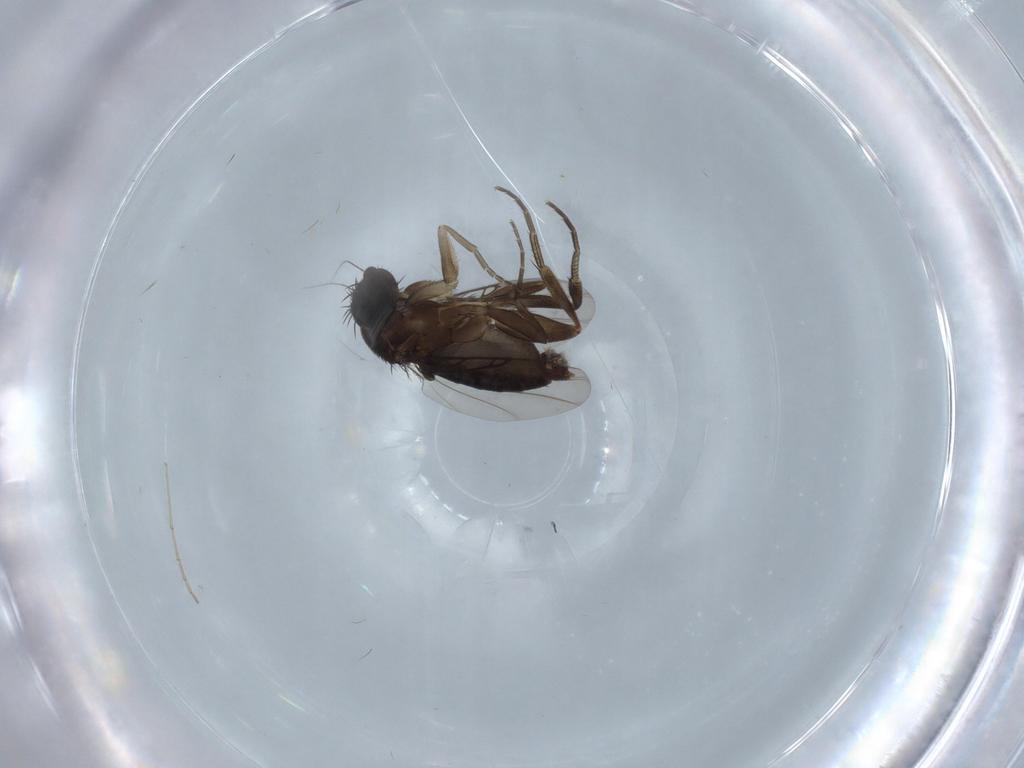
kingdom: Animalia
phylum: Arthropoda
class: Insecta
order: Diptera
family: Phoridae
